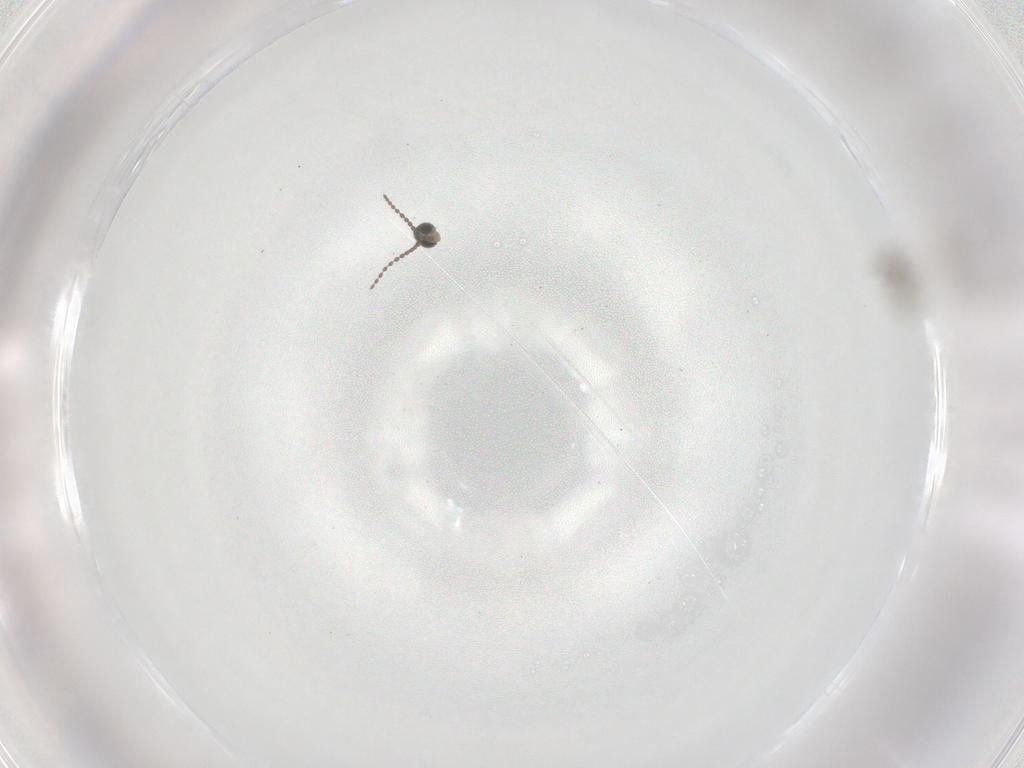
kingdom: Animalia
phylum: Arthropoda
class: Insecta
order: Diptera
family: Cecidomyiidae
